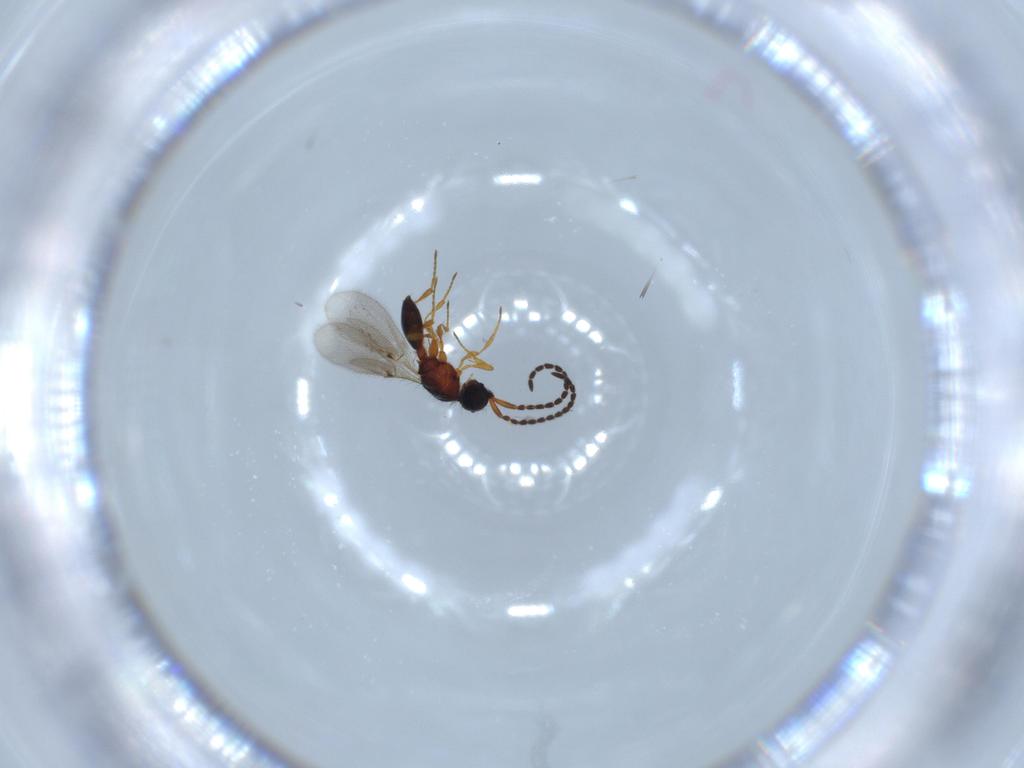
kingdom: Animalia
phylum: Arthropoda
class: Insecta
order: Hymenoptera
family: Diapriidae
